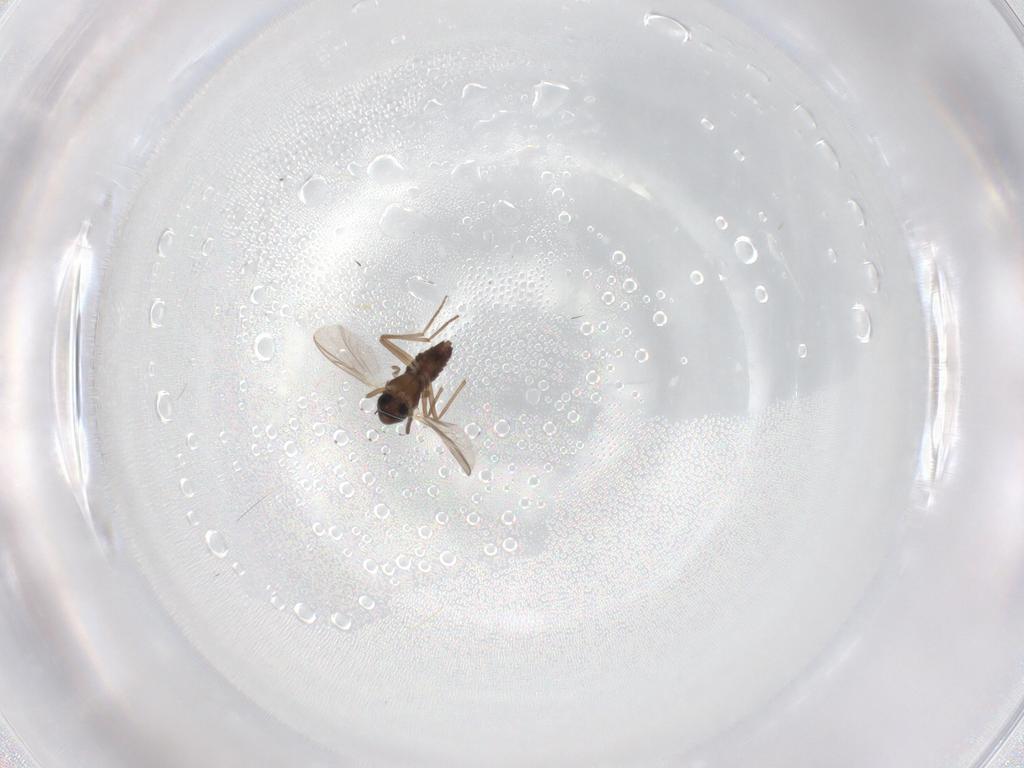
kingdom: Animalia
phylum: Arthropoda
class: Insecta
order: Diptera
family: Chironomidae
